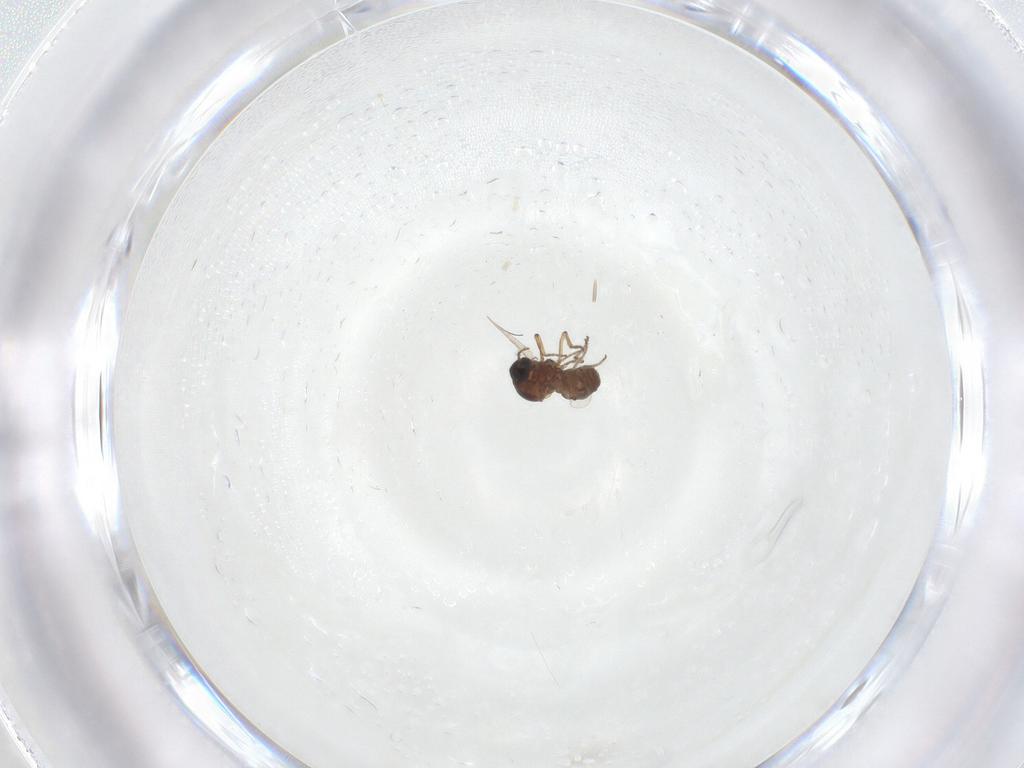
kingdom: Animalia
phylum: Arthropoda
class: Insecta
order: Diptera
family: Ceratopogonidae
